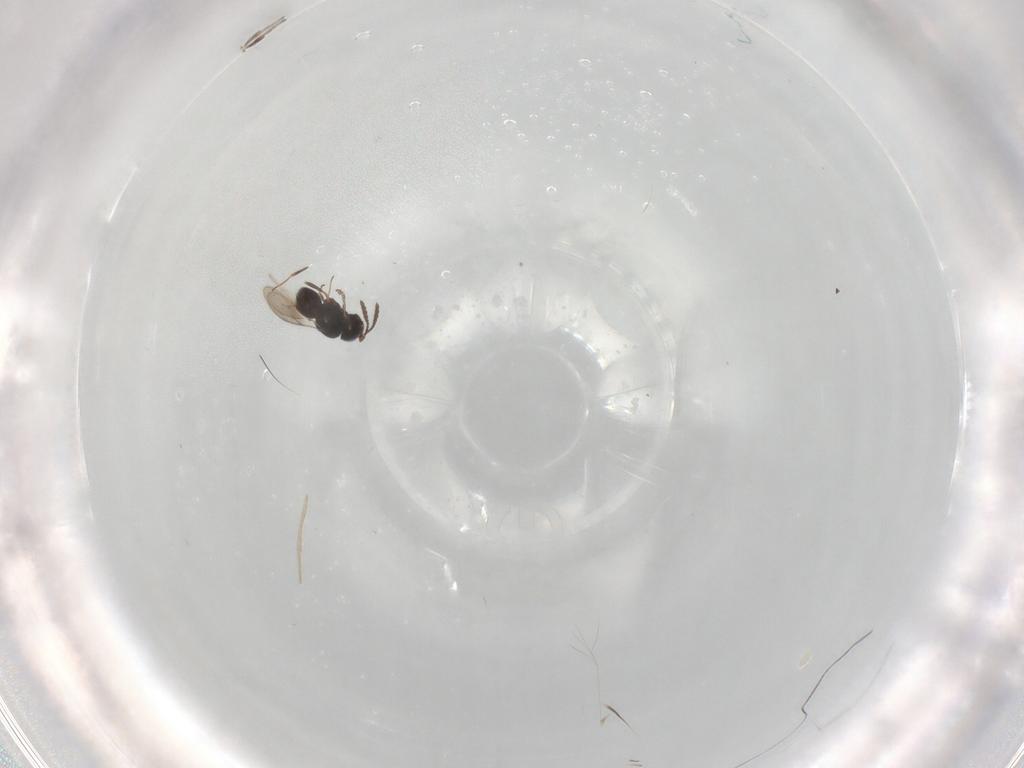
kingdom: Animalia
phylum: Arthropoda
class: Insecta
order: Hymenoptera
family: Scelionidae
